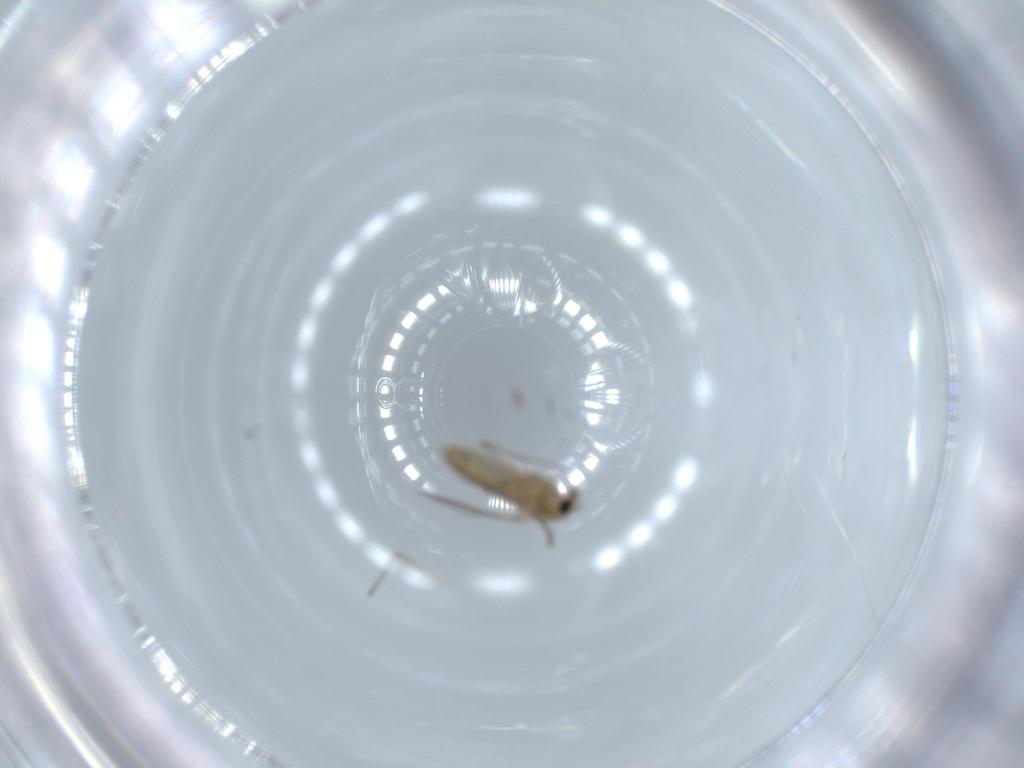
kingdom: Animalia
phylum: Arthropoda
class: Insecta
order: Diptera
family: Chironomidae
